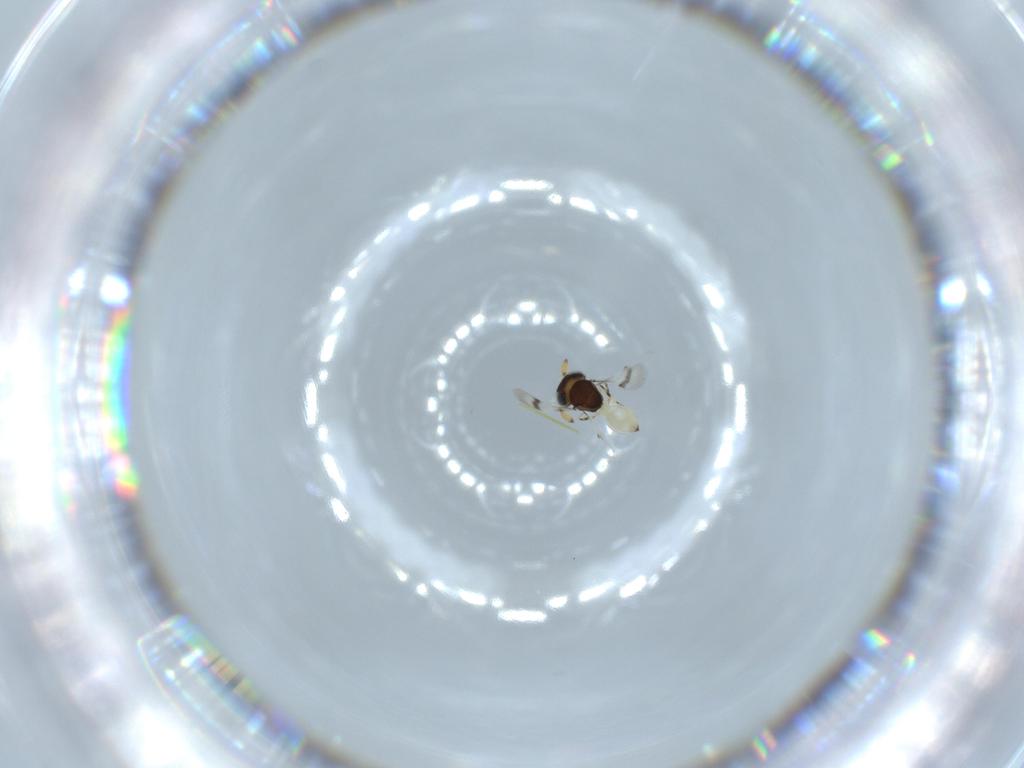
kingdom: Animalia
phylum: Arthropoda
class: Insecta
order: Hymenoptera
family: Scelionidae
